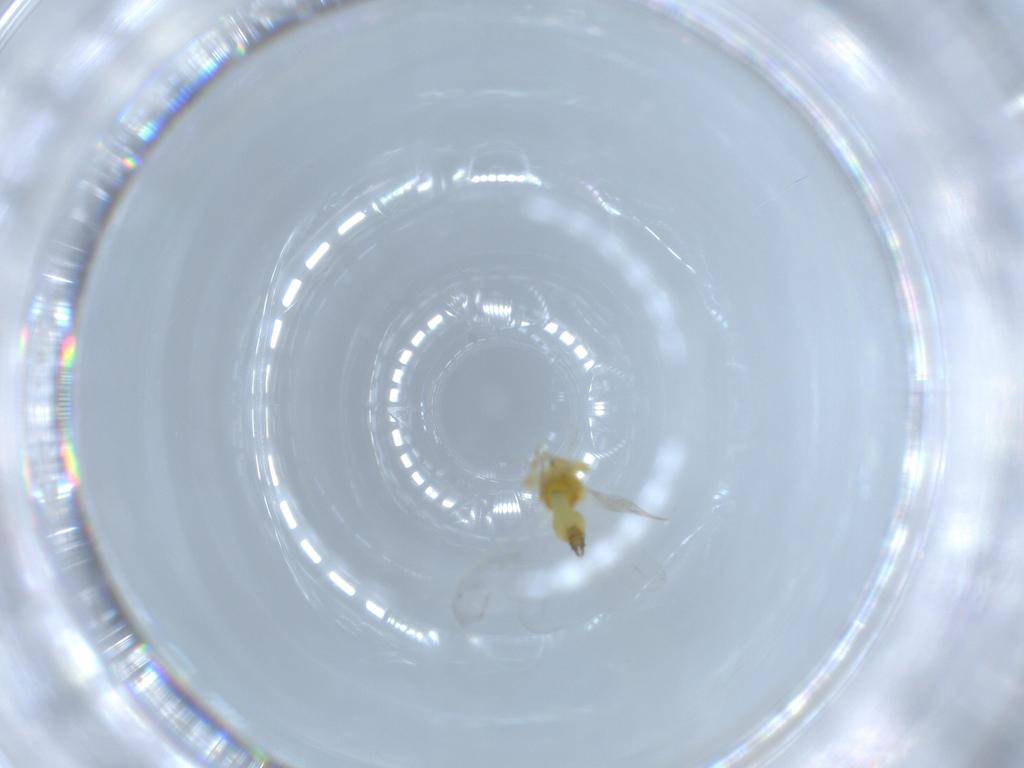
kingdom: Animalia
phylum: Arthropoda
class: Insecta
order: Hemiptera
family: Aleyrodidae
